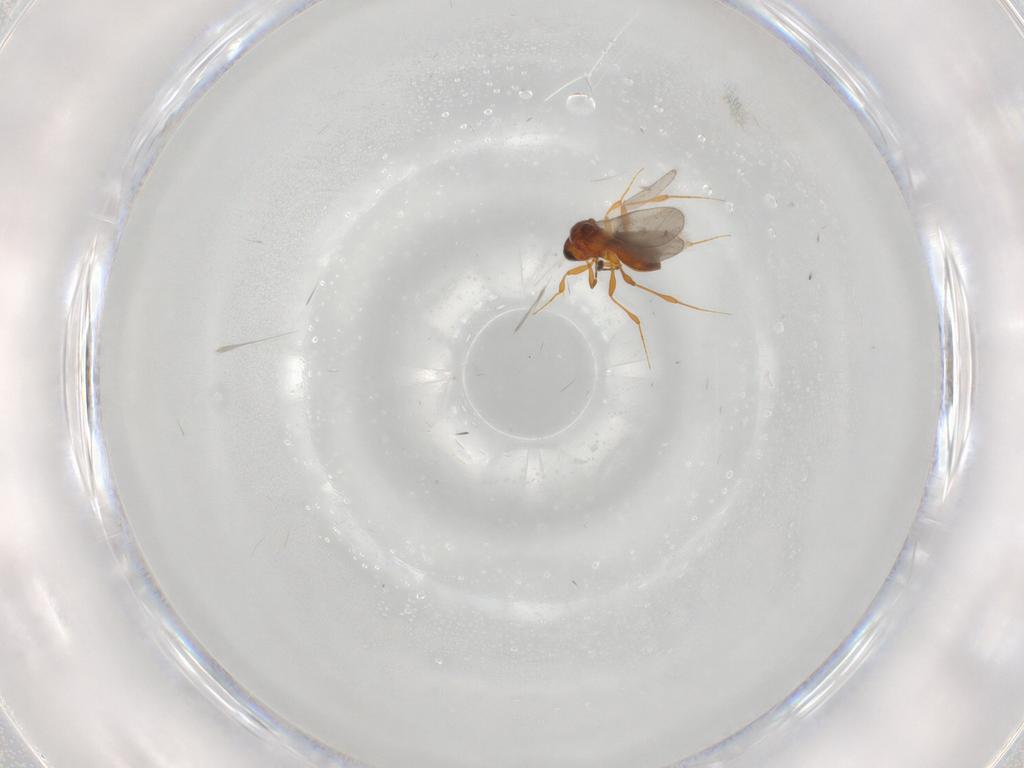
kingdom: Animalia
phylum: Arthropoda
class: Insecta
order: Hymenoptera
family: Platygastridae
